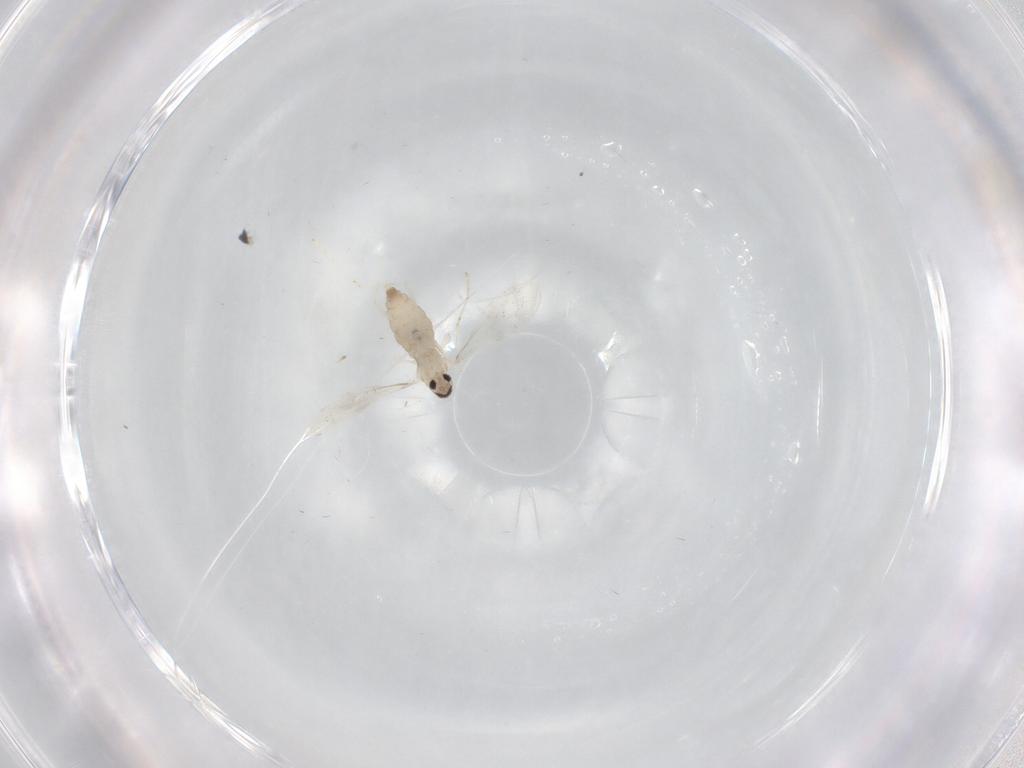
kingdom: Animalia
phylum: Arthropoda
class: Insecta
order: Diptera
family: Cecidomyiidae
